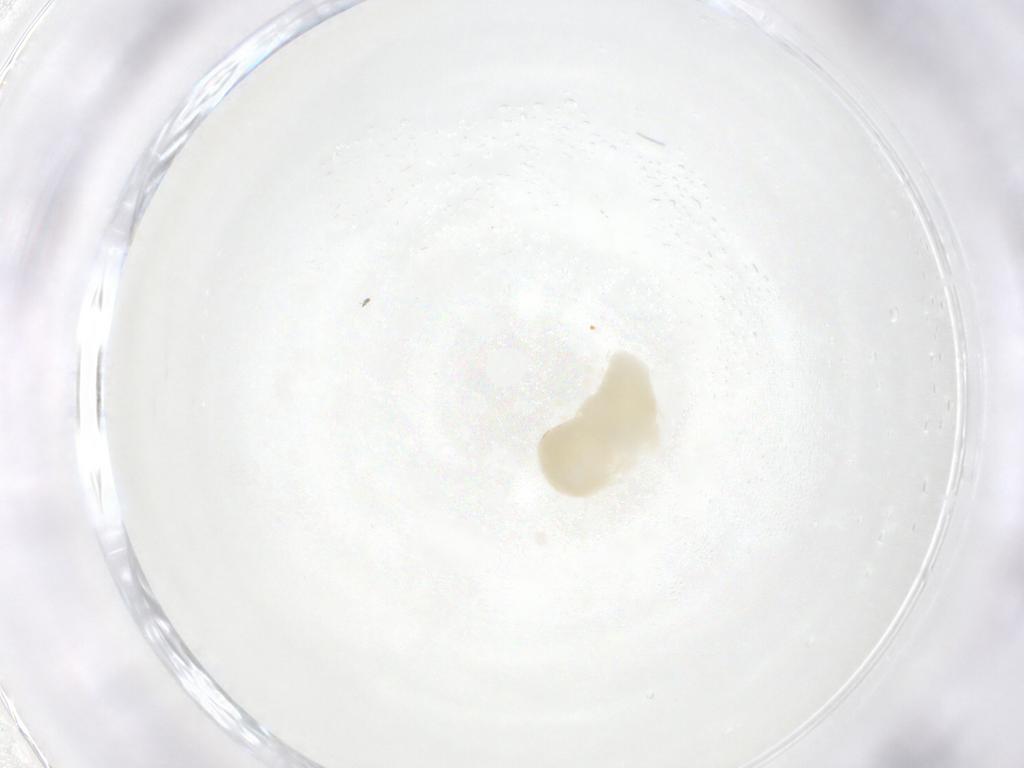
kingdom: Animalia
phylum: Arthropoda
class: Insecta
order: Hymenoptera
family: Eulophidae
